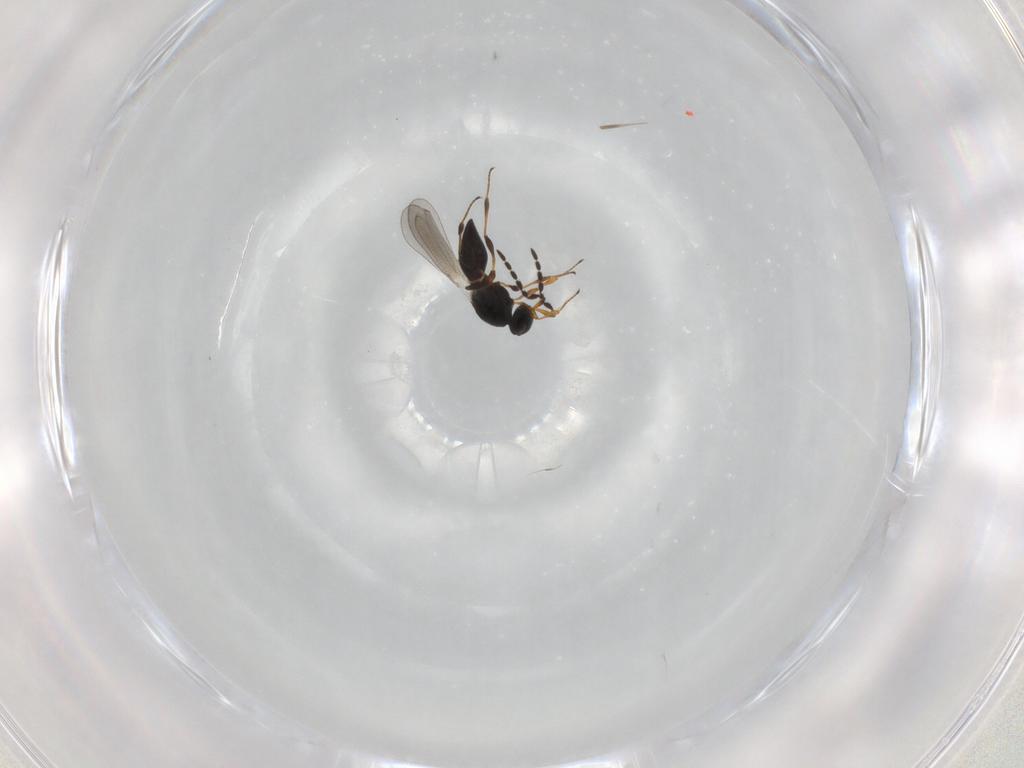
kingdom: Animalia
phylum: Arthropoda
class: Insecta
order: Hymenoptera
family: Platygastridae
